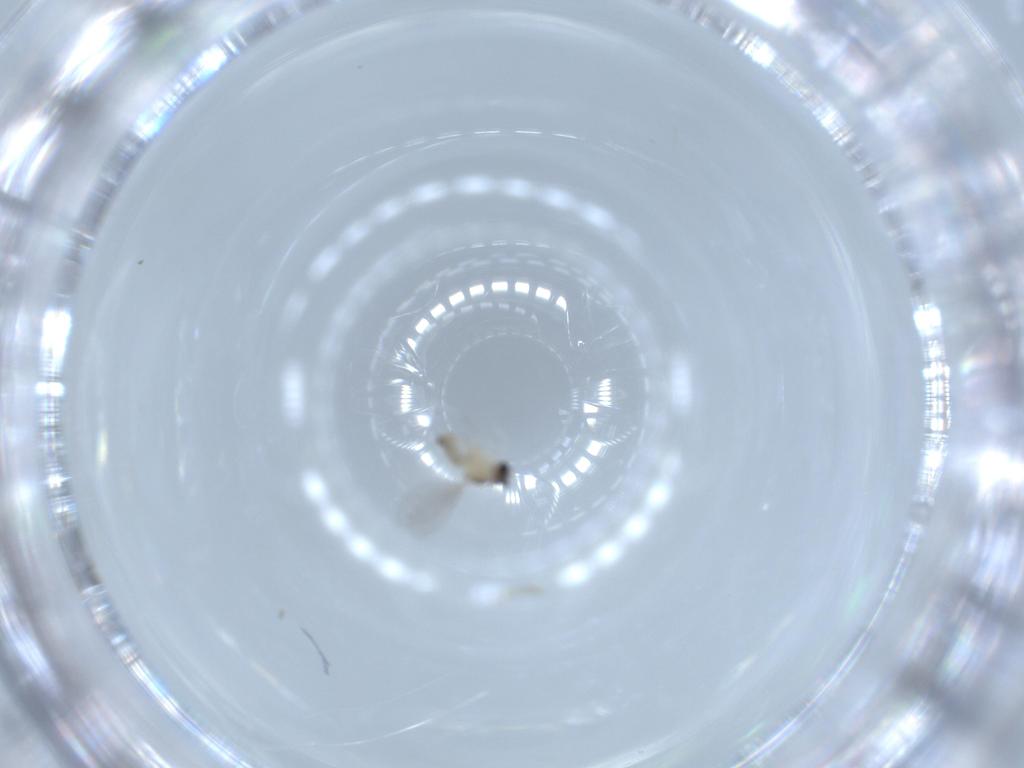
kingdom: Animalia
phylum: Arthropoda
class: Insecta
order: Diptera
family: Cecidomyiidae
